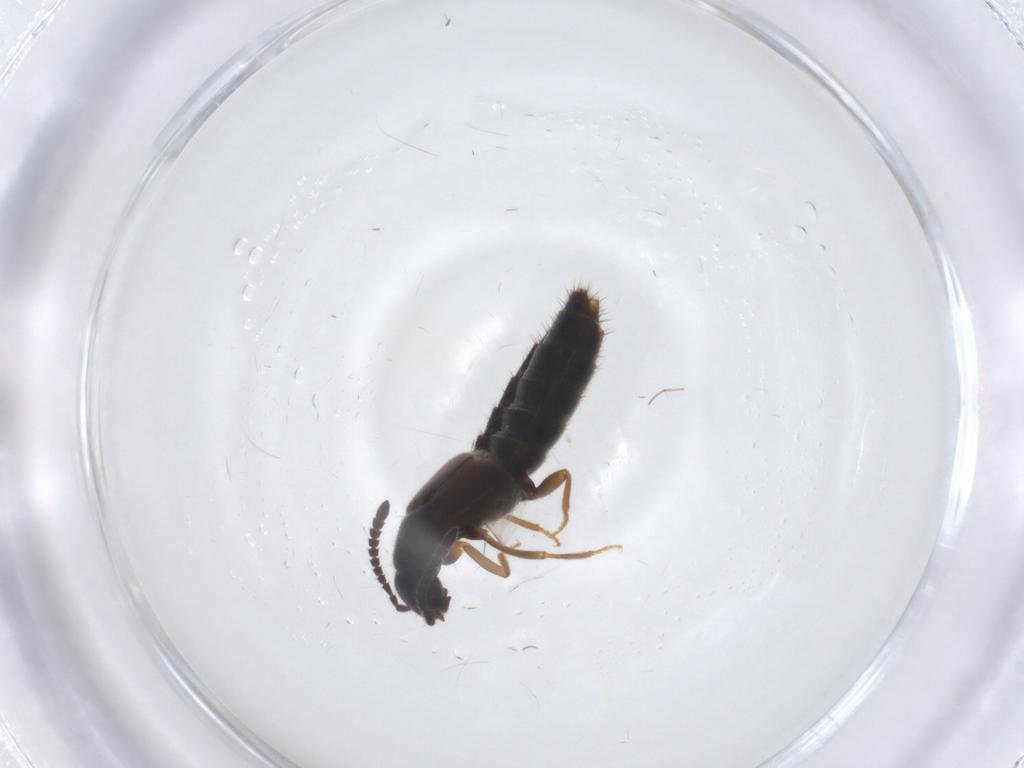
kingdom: Animalia
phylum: Arthropoda
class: Insecta
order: Coleoptera
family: Staphylinidae
